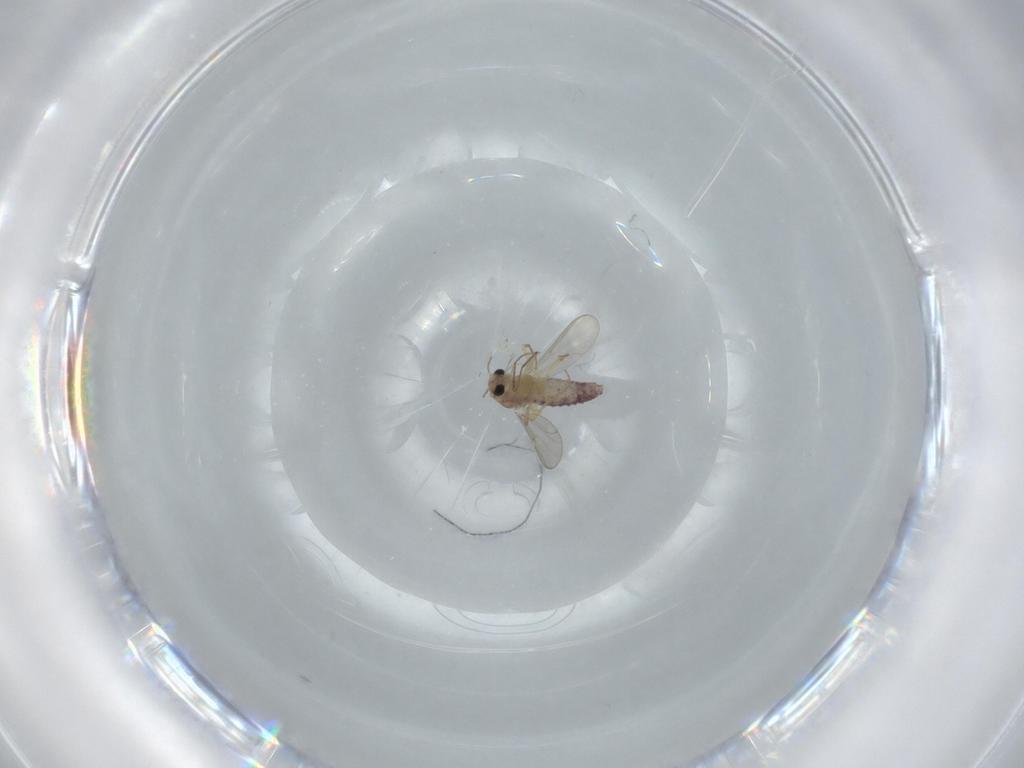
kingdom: Animalia
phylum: Arthropoda
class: Insecta
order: Diptera
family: Chironomidae
